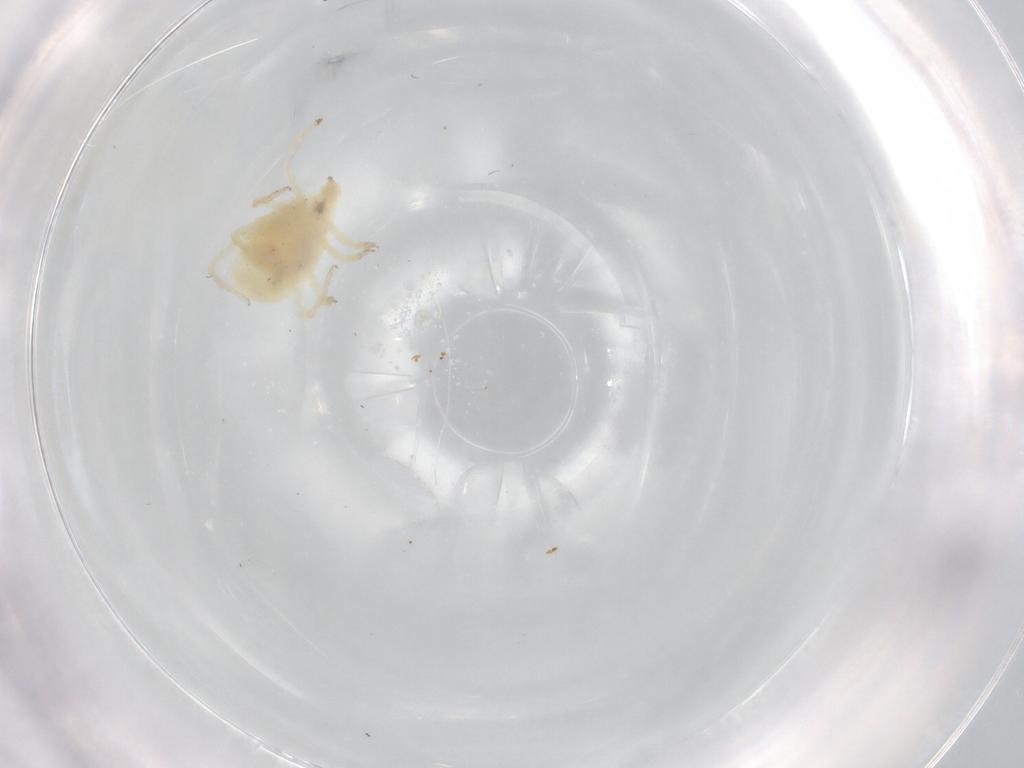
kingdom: Animalia
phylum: Arthropoda
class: Arachnida
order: Trombidiformes
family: Bdellidae
